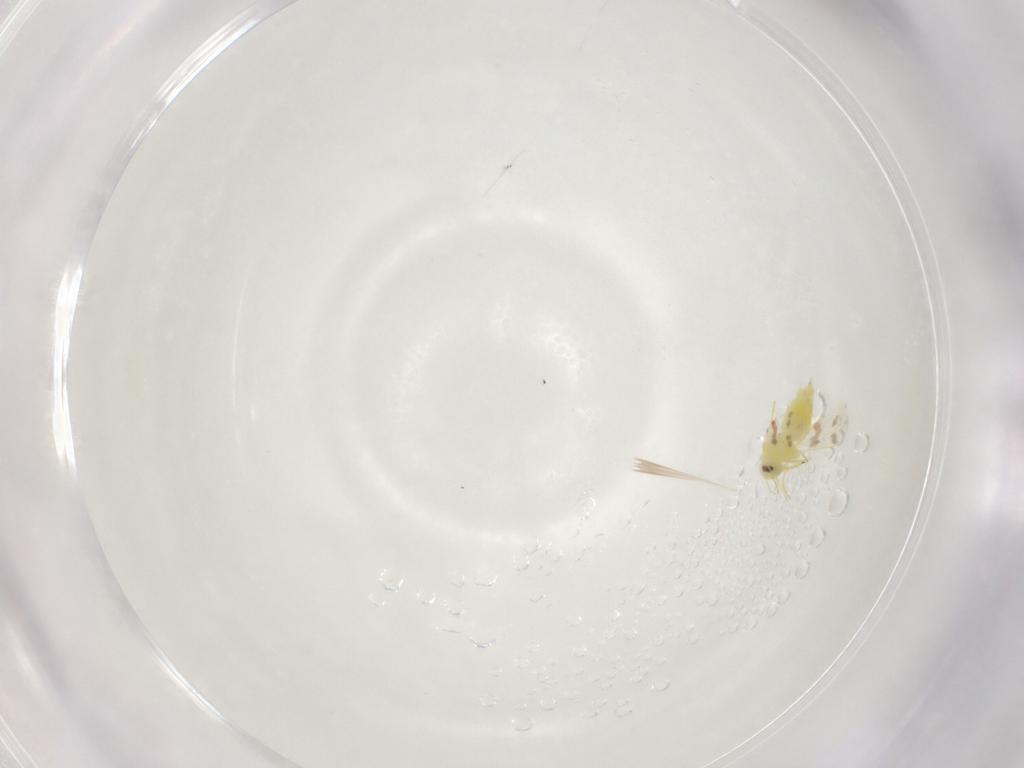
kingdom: Animalia
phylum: Arthropoda
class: Insecta
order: Hemiptera
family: Aleyrodidae
